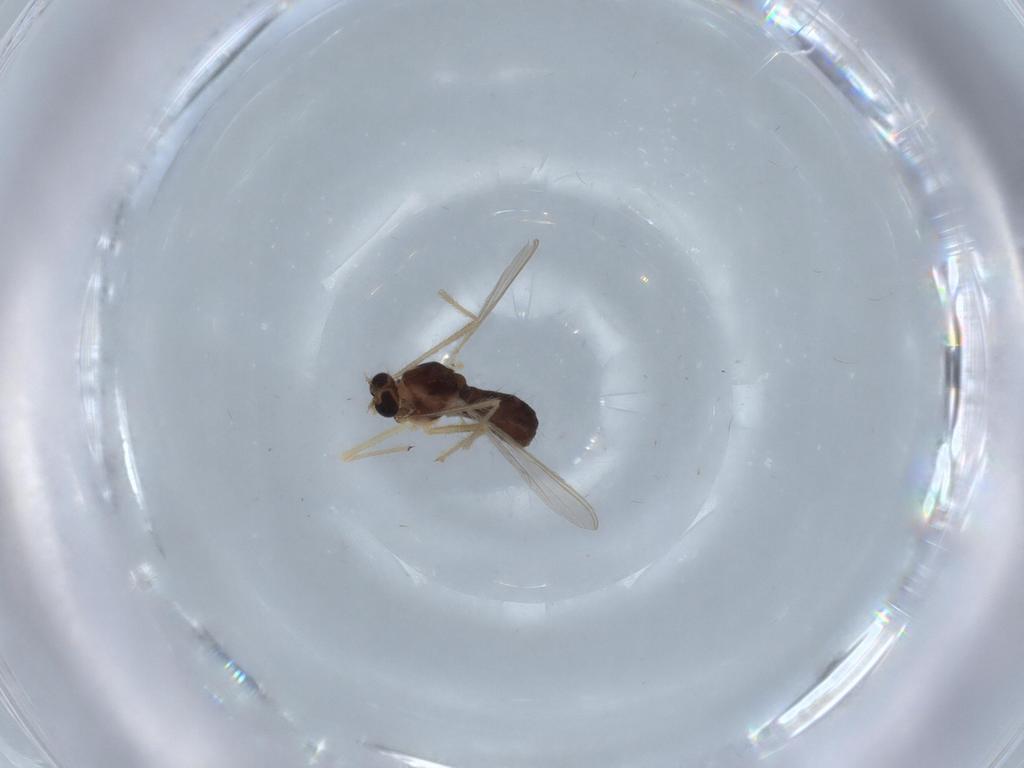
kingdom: Animalia
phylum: Arthropoda
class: Insecta
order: Diptera
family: Chironomidae
